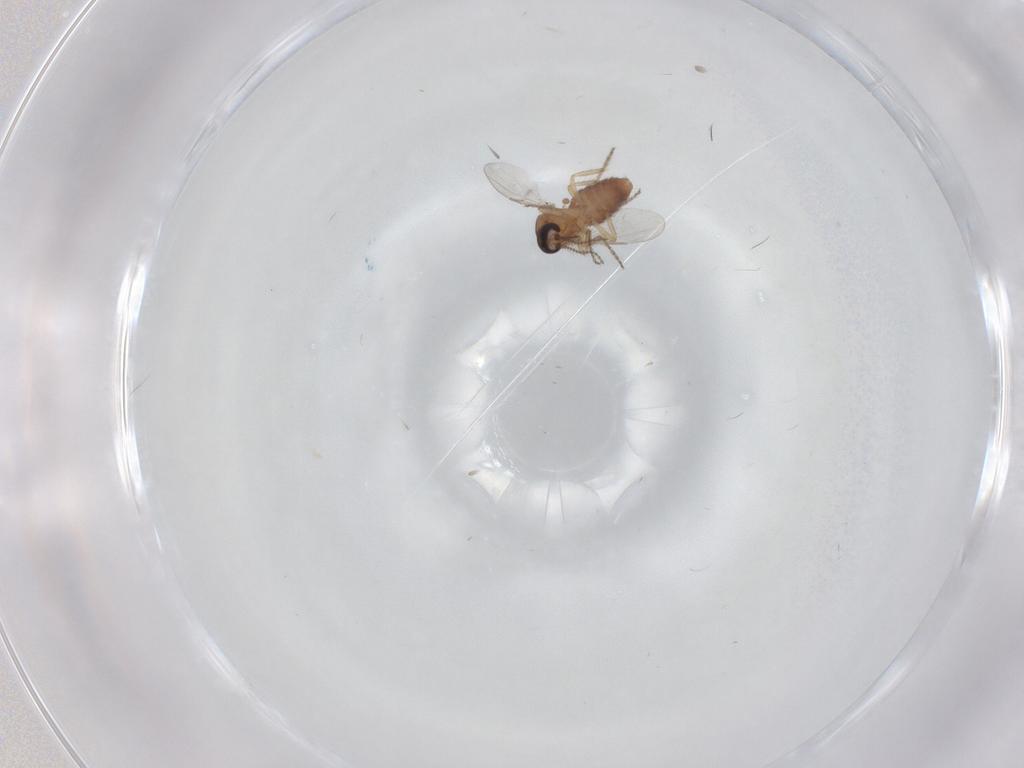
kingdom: Animalia
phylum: Arthropoda
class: Insecta
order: Diptera
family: Ceratopogonidae
